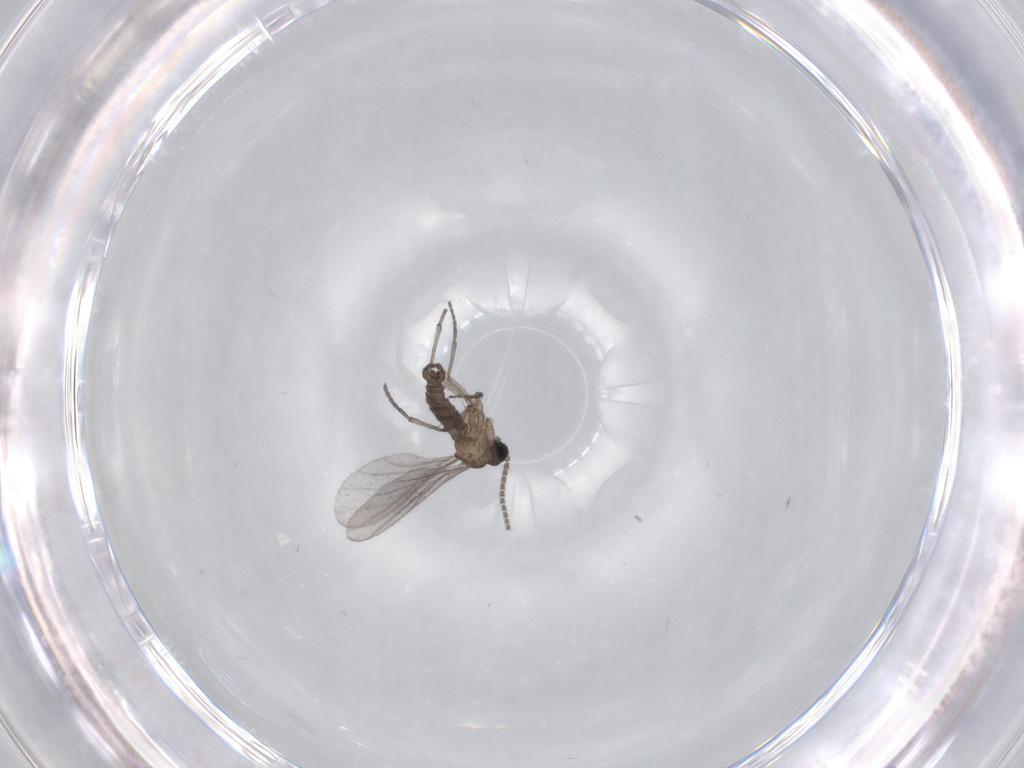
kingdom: Animalia
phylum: Arthropoda
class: Insecta
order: Diptera
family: Sciaridae
